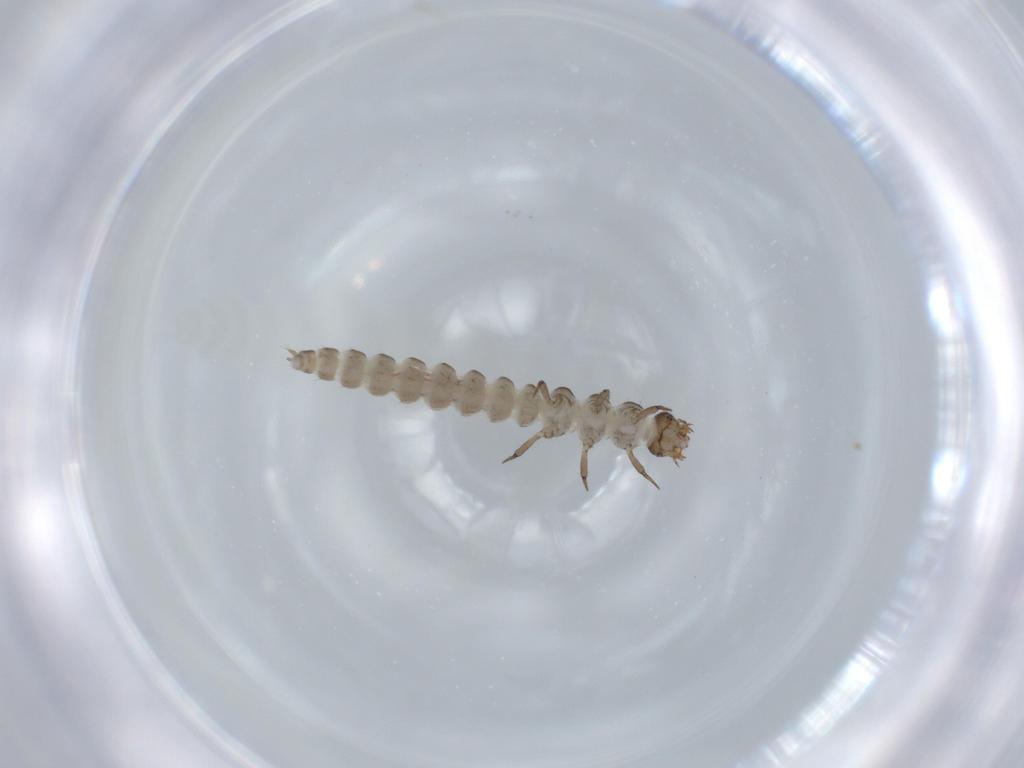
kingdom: Animalia
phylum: Arthropoda
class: Insecta
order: Coleoptera
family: Hydraenidae
